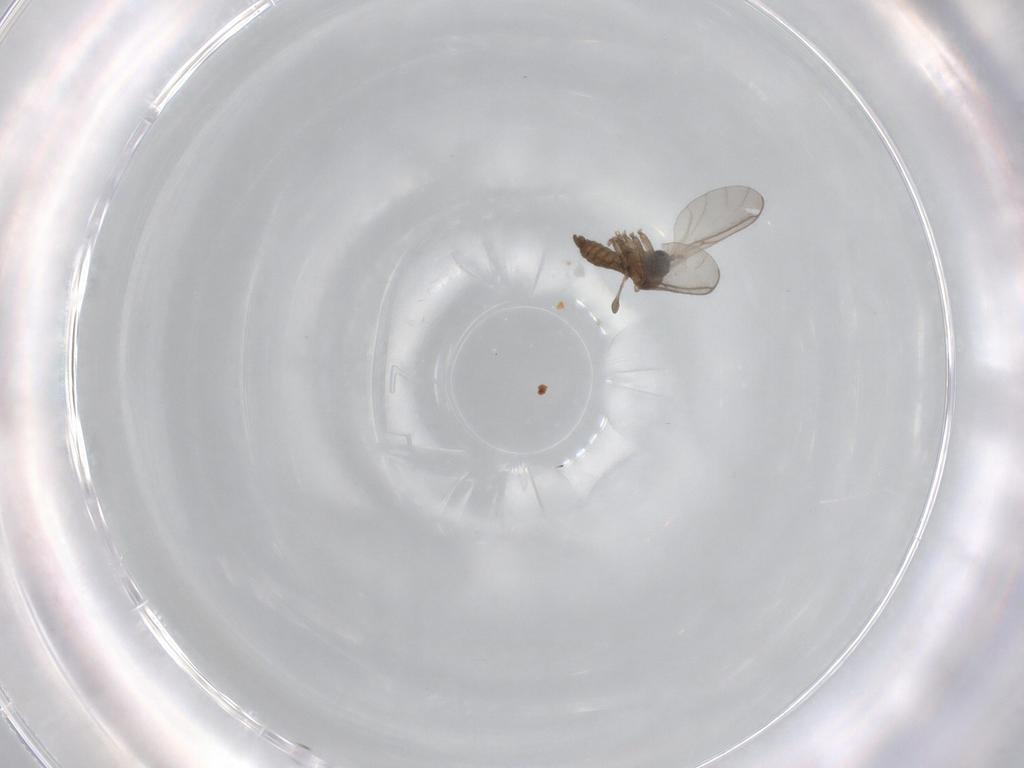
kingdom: Animalia
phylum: Arthropoda
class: Insecta
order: Diptera
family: Sciaridae
